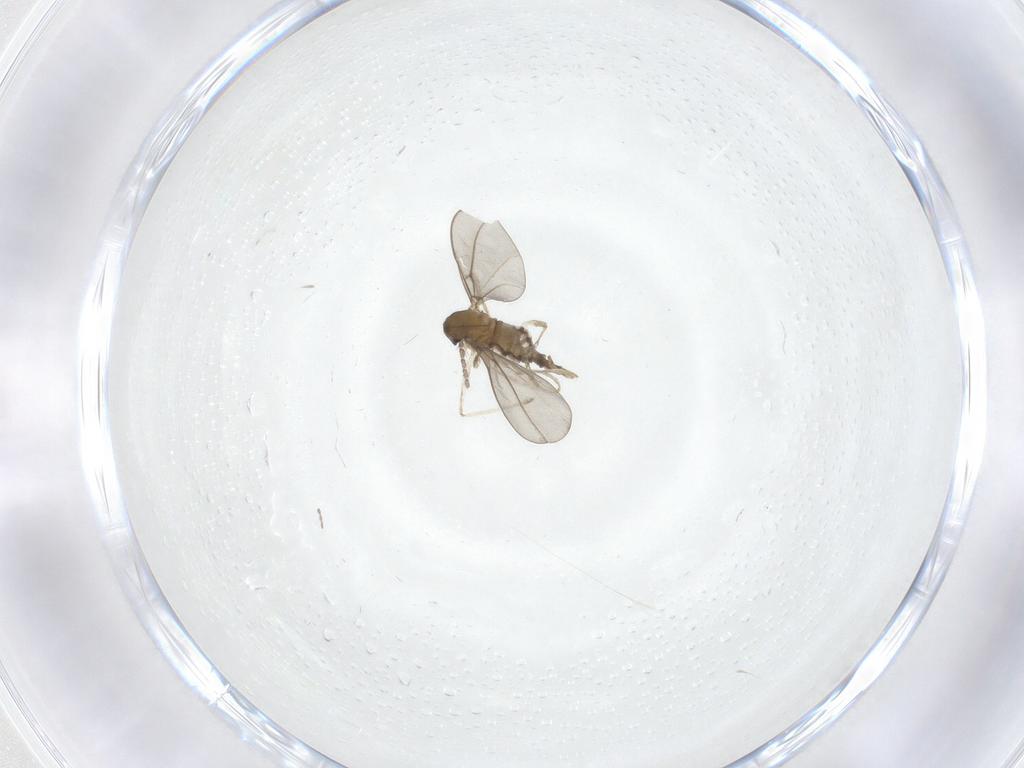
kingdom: Animalia
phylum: Arthropoda
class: Insecta
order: Diptera
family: Cecidomyiidae
